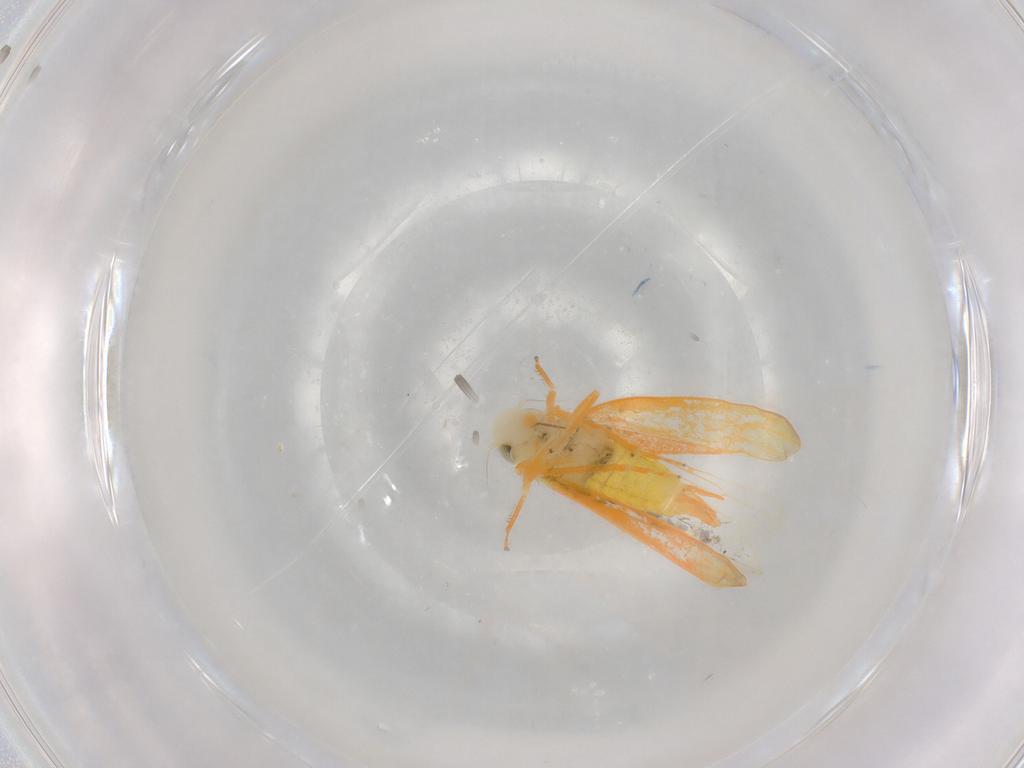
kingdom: Animalia
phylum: Arthropoda
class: Insecta
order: Hemiptera
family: Cicadellidae
